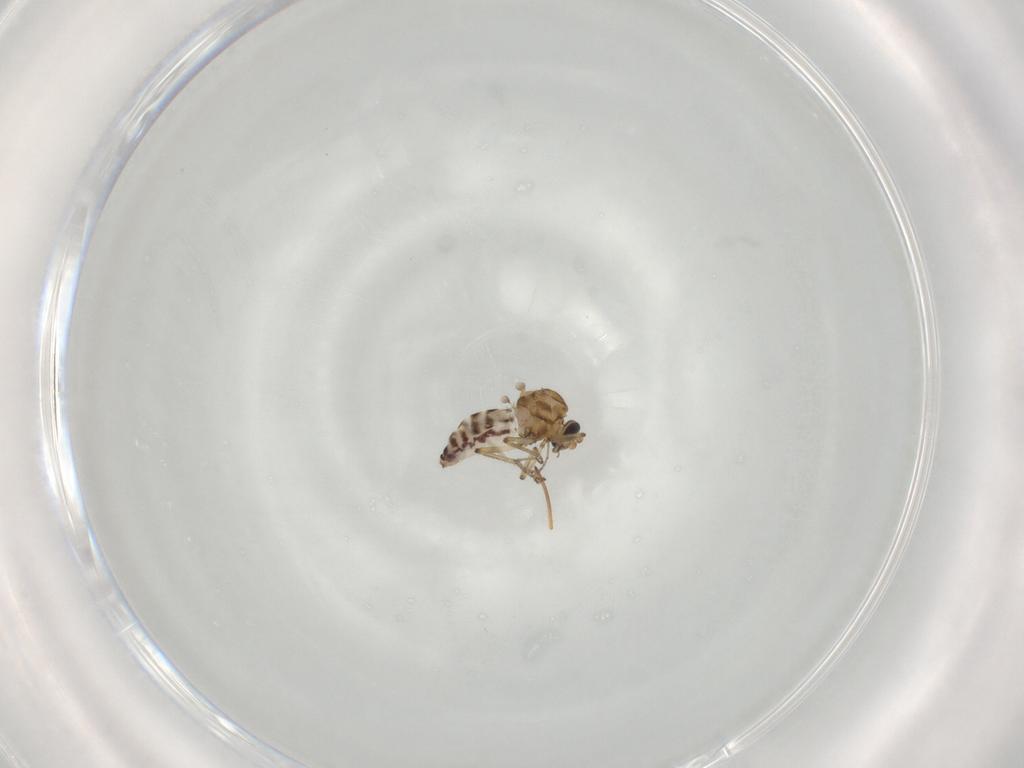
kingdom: Animalia
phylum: Arthropoda
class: Insecta
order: Diptera
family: Ceratopogonidae
